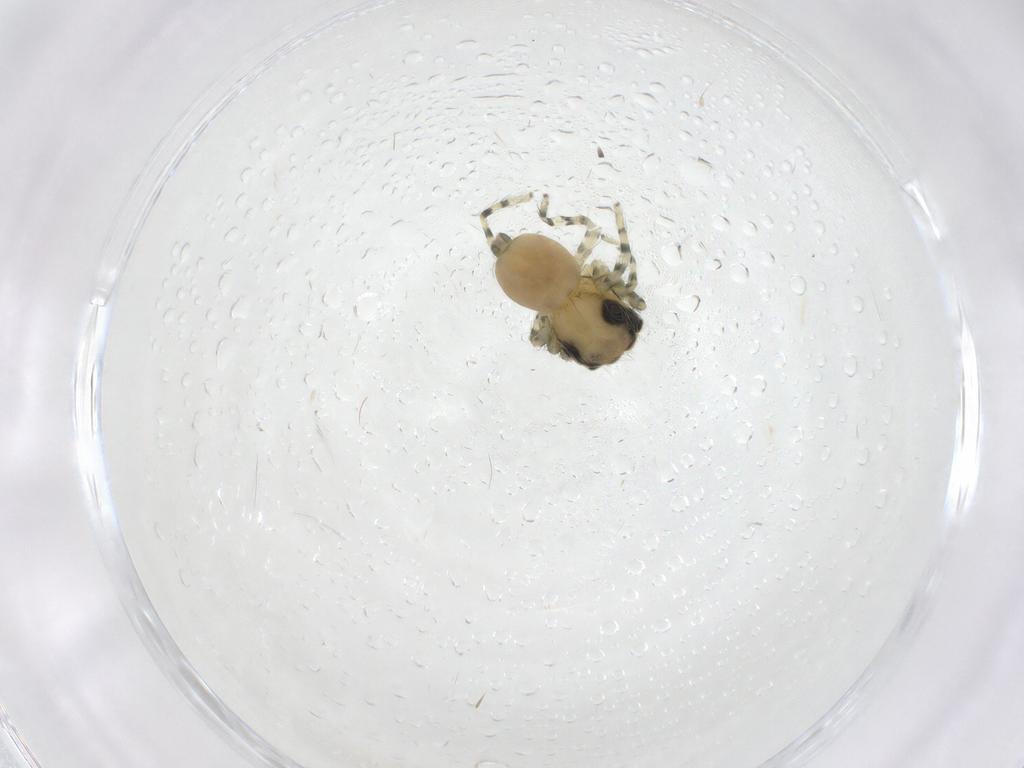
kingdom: Animalia
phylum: Arthropoda
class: Arachnida
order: Araneae
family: Salticidae
